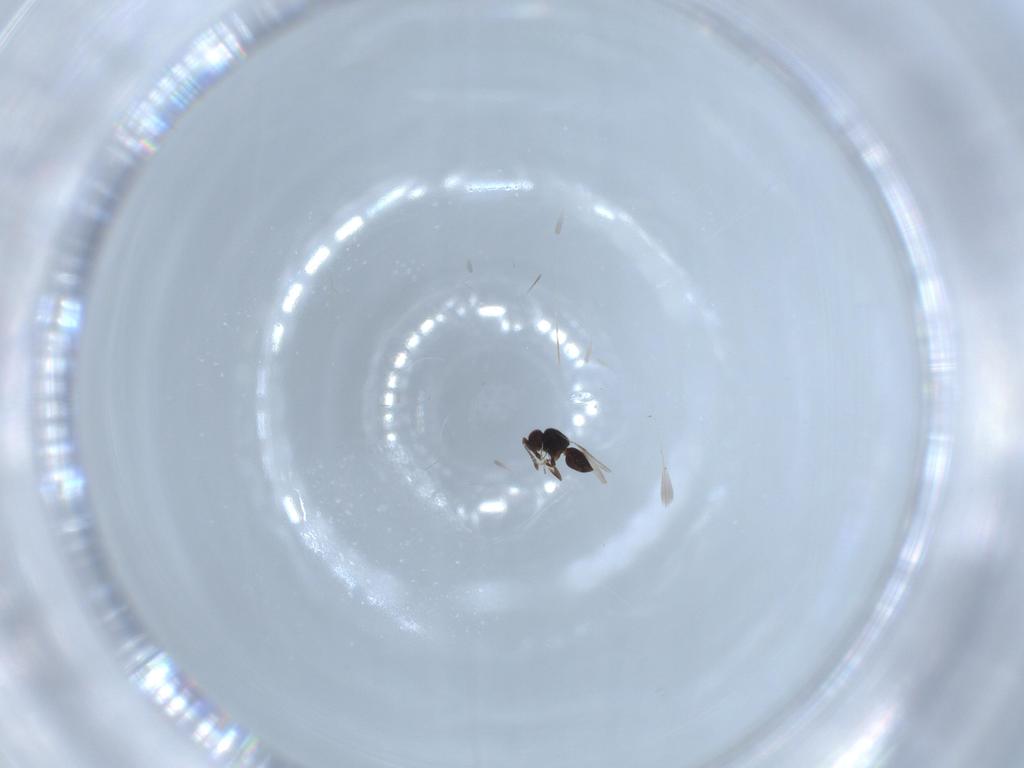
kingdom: Animalia
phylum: Arthropoda
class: Insecta
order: Hymenoptera
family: Ceraphronidae
